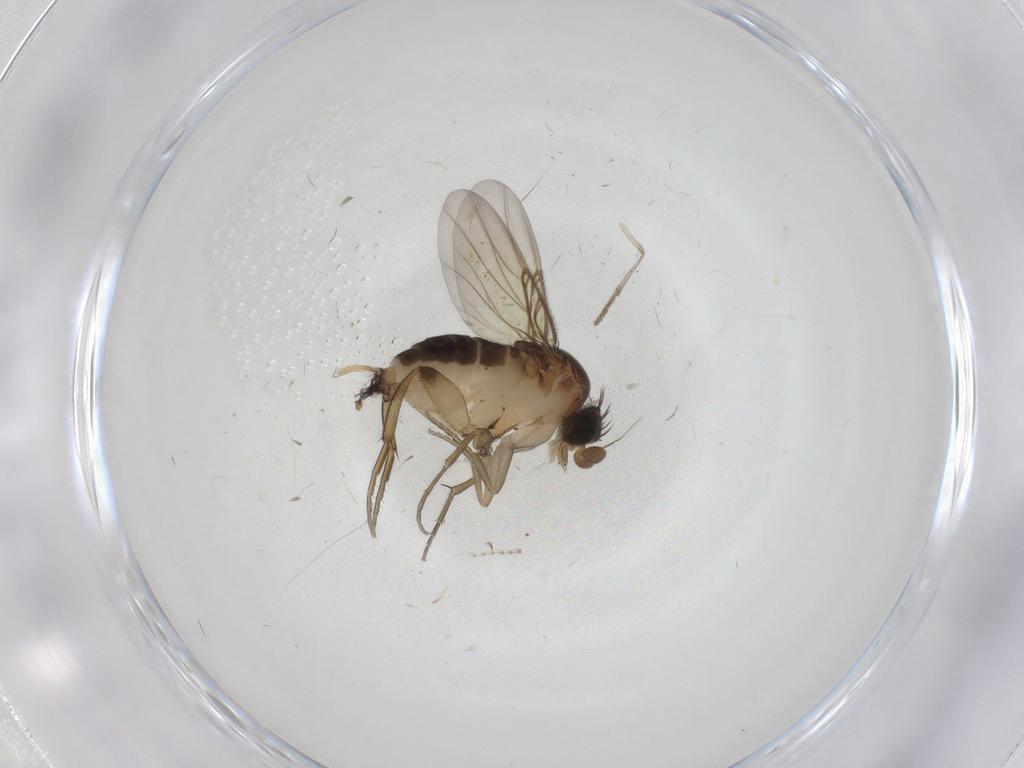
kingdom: Animalia
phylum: Arthropoda
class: Insecta
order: Diptera
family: Phoridae
